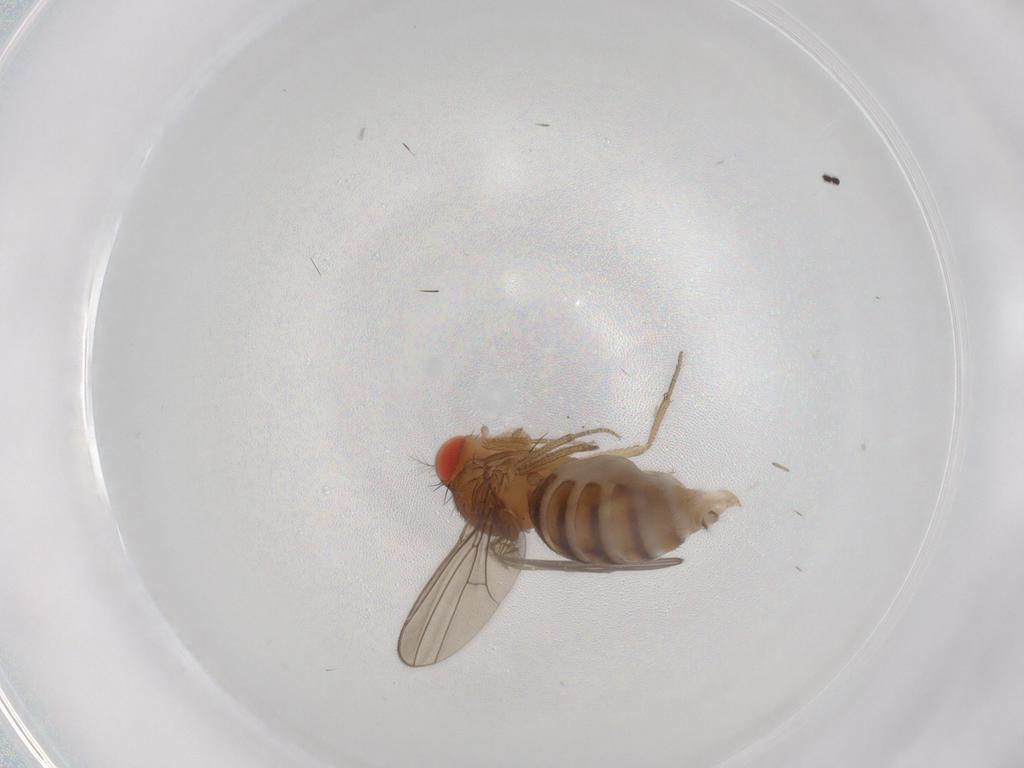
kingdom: Animalia
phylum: Arthropoda
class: Insecta
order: Diptera
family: Drosophilidae
